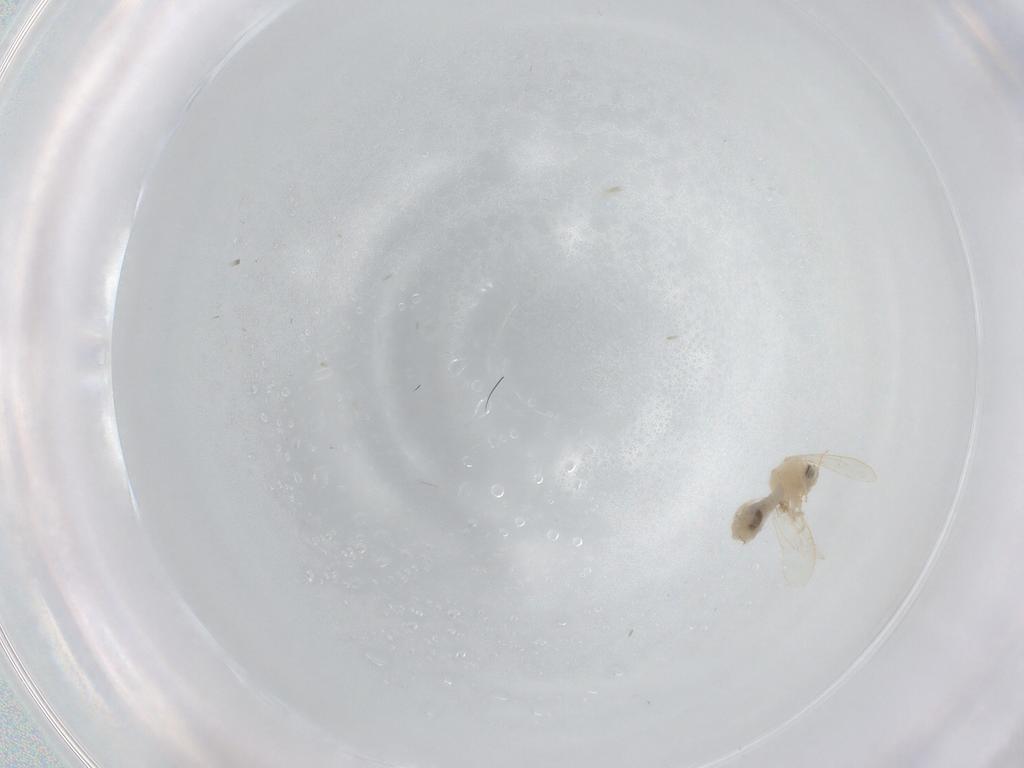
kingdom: Animalia
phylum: Arthropoda
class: Insecta
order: Hemiptera
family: Aleyrodidae
